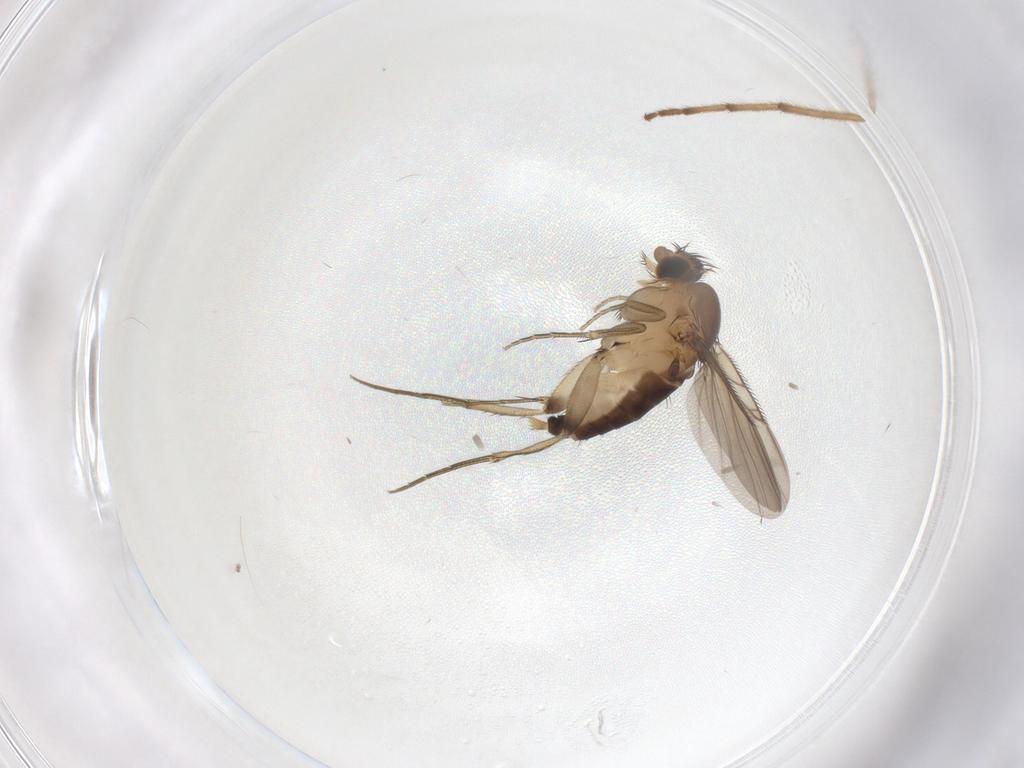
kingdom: Animalia
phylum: Arthropoda
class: Insecta
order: Diptera
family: Phoridae
